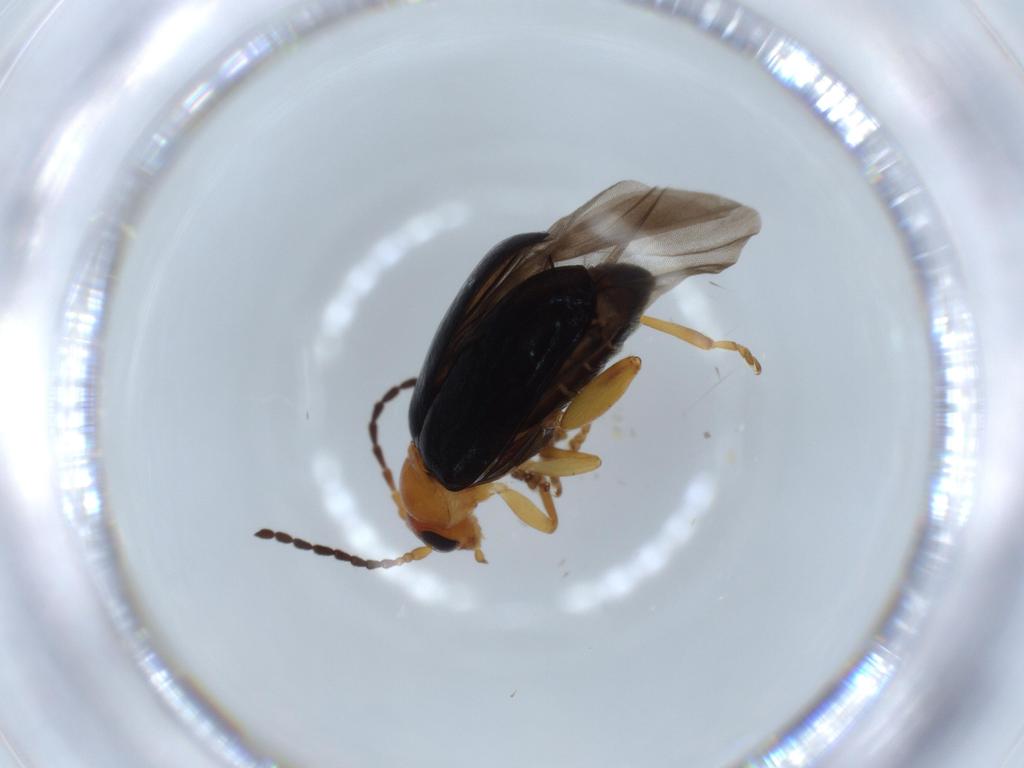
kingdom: Animalia
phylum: Arthropoda
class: Insecta
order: Coleoptera
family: Chrysomelidae
